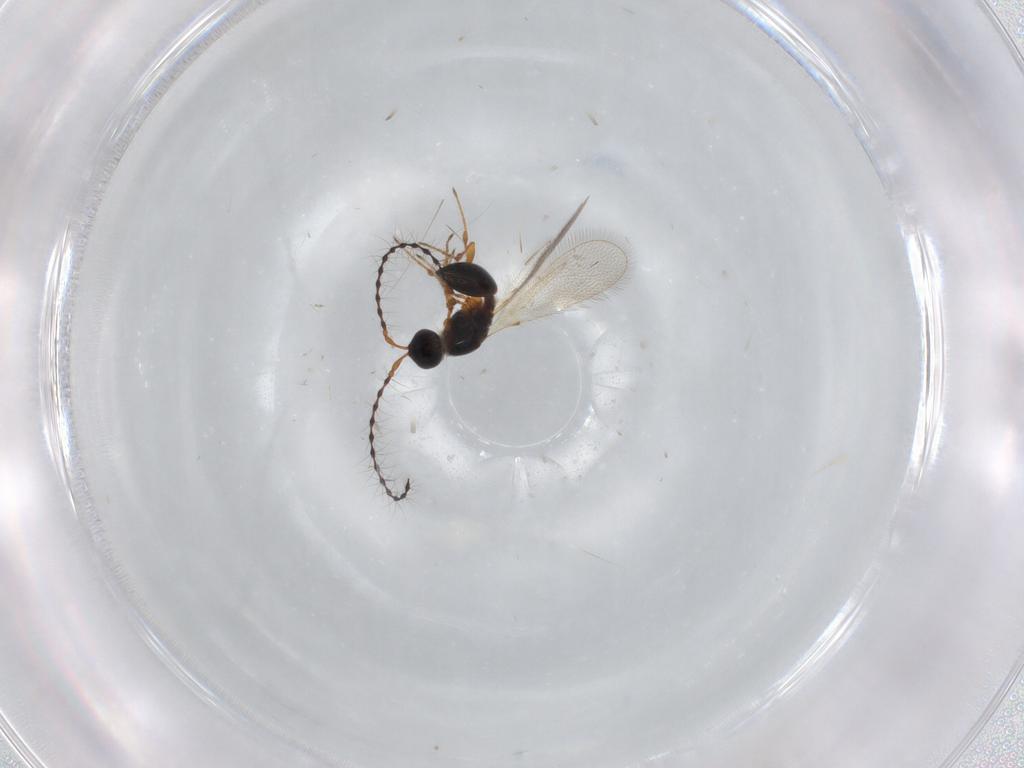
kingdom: Animalia
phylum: Arthropoda
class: Insecta
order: Hymenoptera
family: Diapriidae
